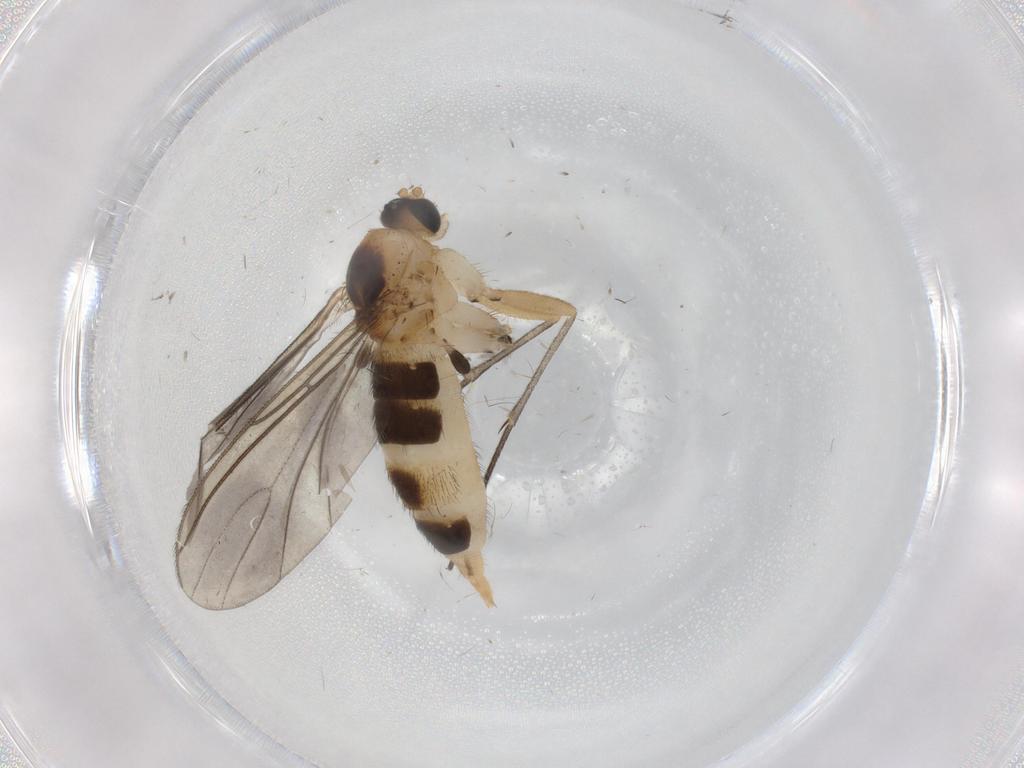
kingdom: Animalia
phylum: Arthropoda
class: Insecta
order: Diptera
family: Sciaridae
